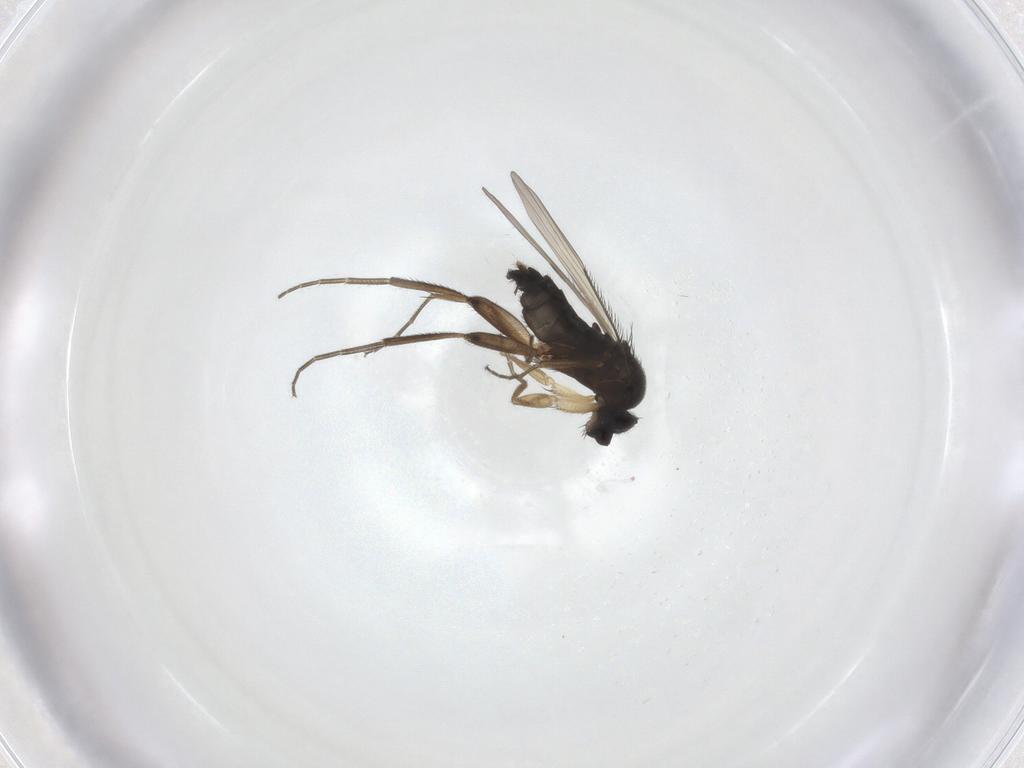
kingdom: Animalia
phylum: Arthropoda
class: Insecta
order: Diptera
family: Phoridae
